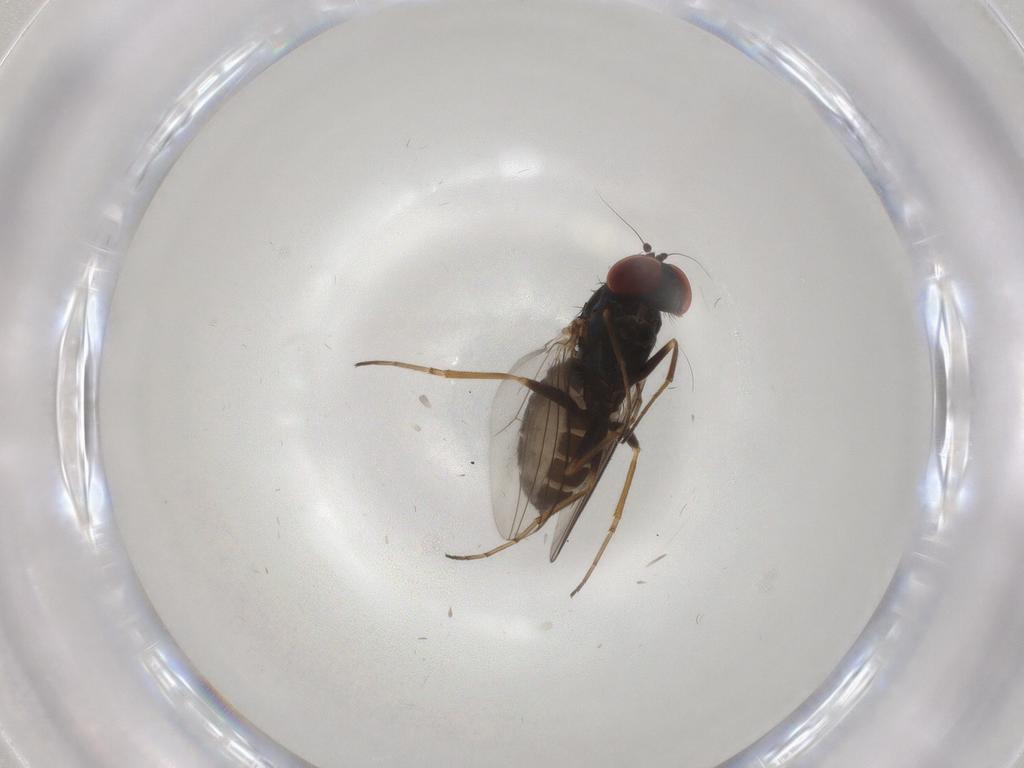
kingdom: Animalia
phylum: Arthropoda
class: Insecta
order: Diptera
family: Dolichopodidae
